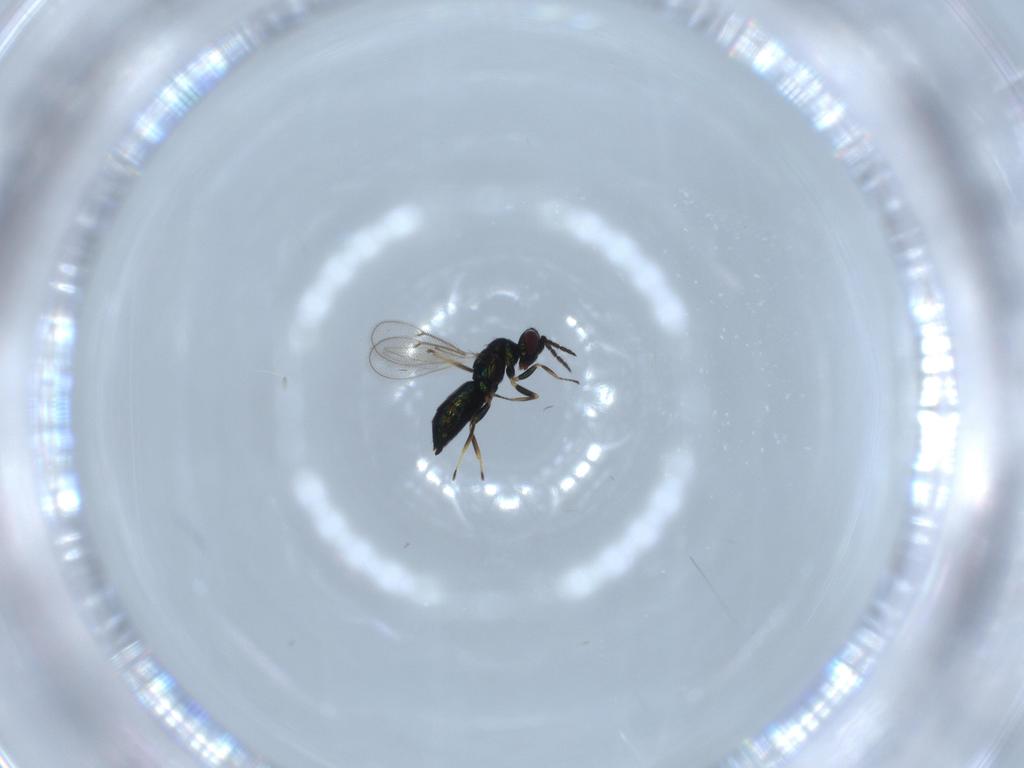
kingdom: Animalia
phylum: Arthropoda
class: Insecta
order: Hymenoptera
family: Eulophidae
